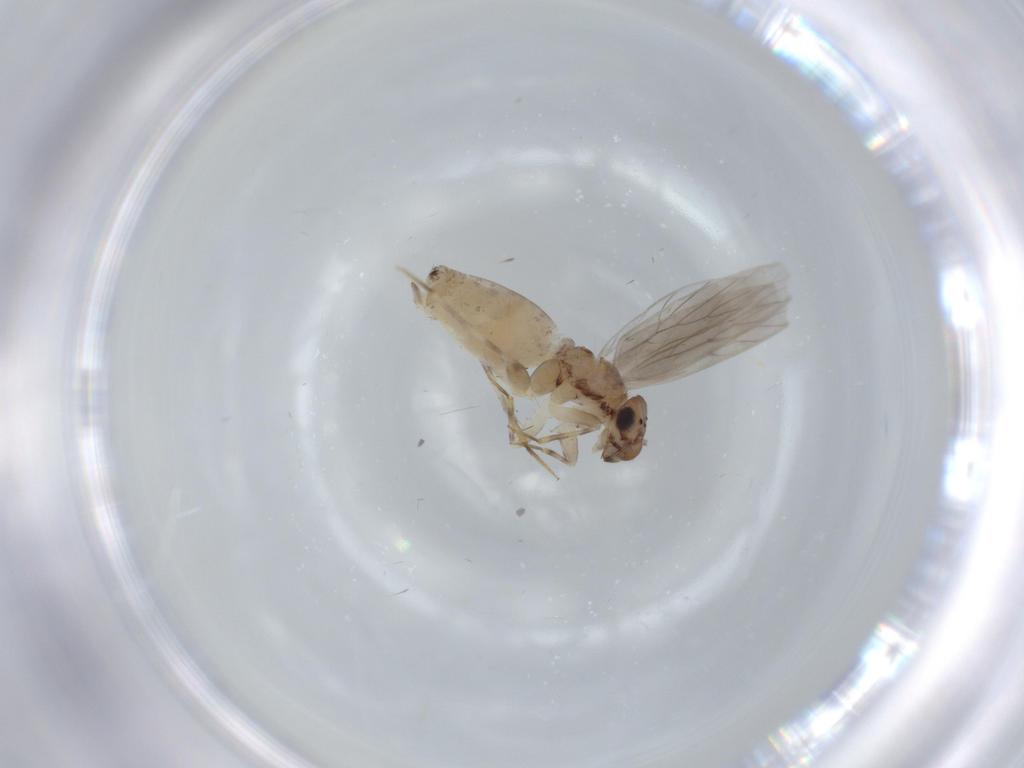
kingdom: Animalia
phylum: Arthropoda
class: Insecta
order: Psocodea
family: Lepidopsocidae
